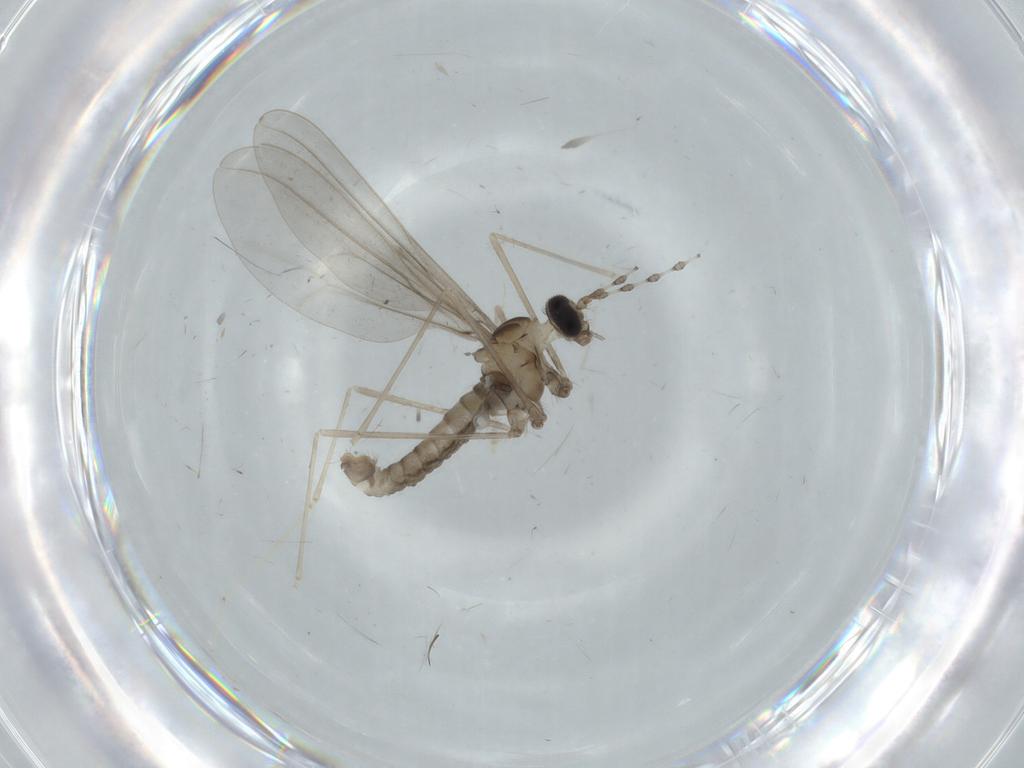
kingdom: Animalia
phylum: Arthropoda
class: Insecta
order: Diptera
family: Cecidomyiidae
